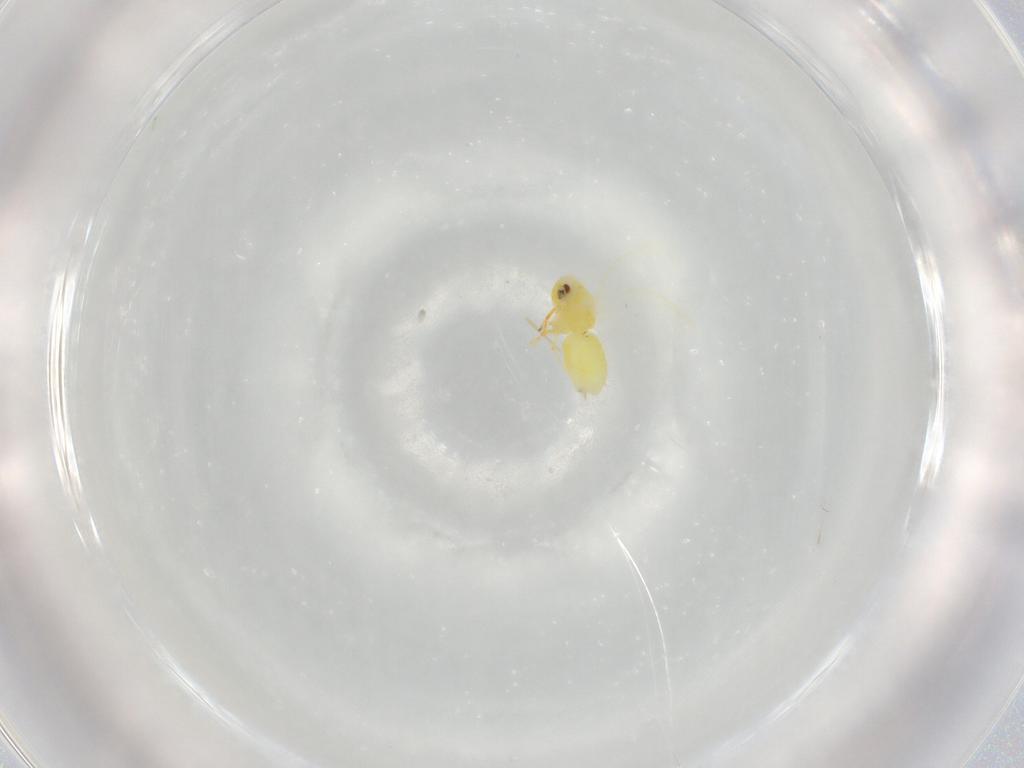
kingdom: Animalia
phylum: Arthropoda
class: Insecta
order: Hemiptera
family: Aleyrodidae
